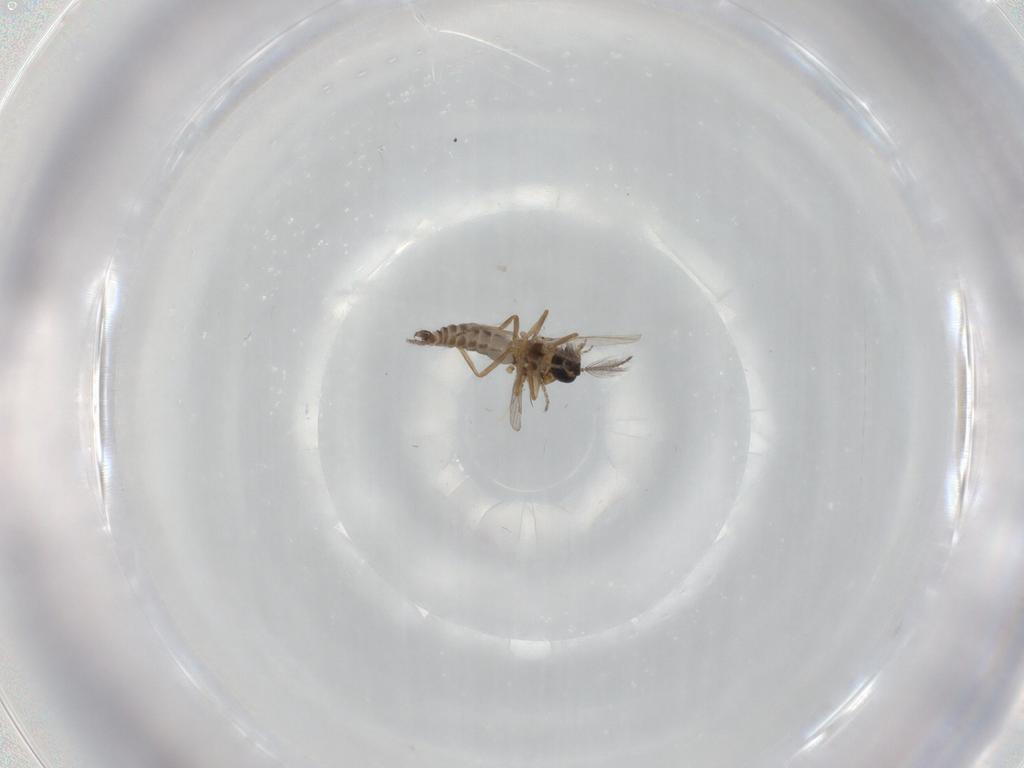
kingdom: Animalia
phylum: Arthropoda
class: Insecta
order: Diptera
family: Ceratopogonidae
